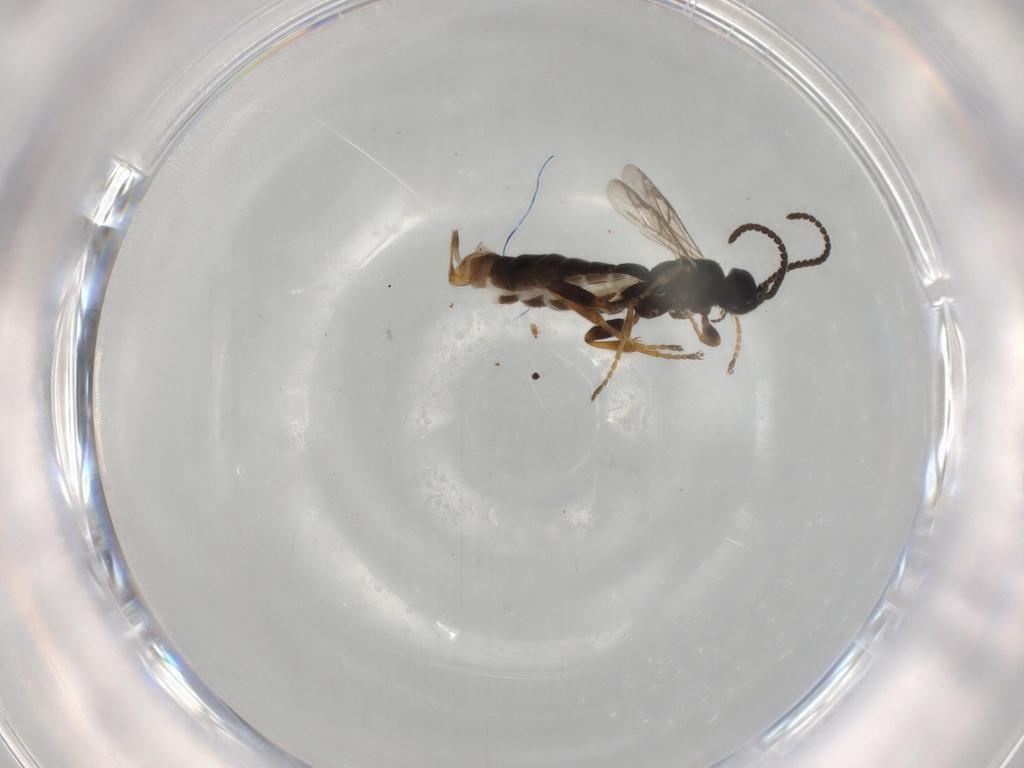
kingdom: Animalia
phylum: Arthropoda
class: Insecta
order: Hymenoptera
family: Ichneumonidae
